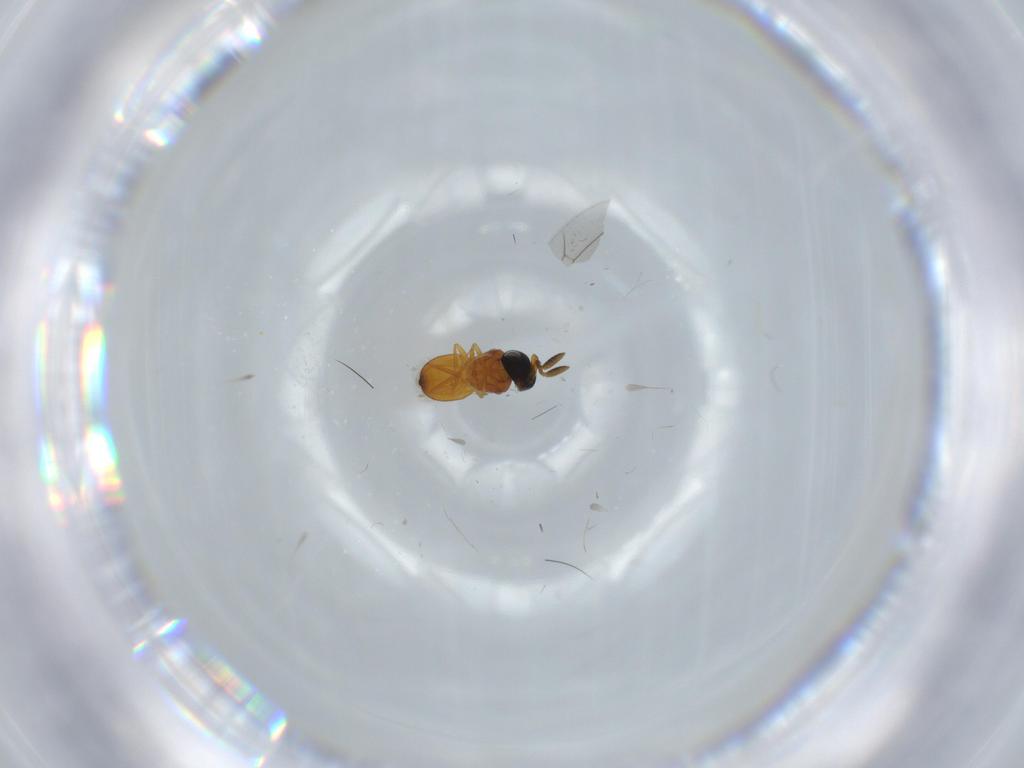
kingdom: Animalia
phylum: Arthropoda
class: Insecta
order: Hymenoptera
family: Scelionidae
